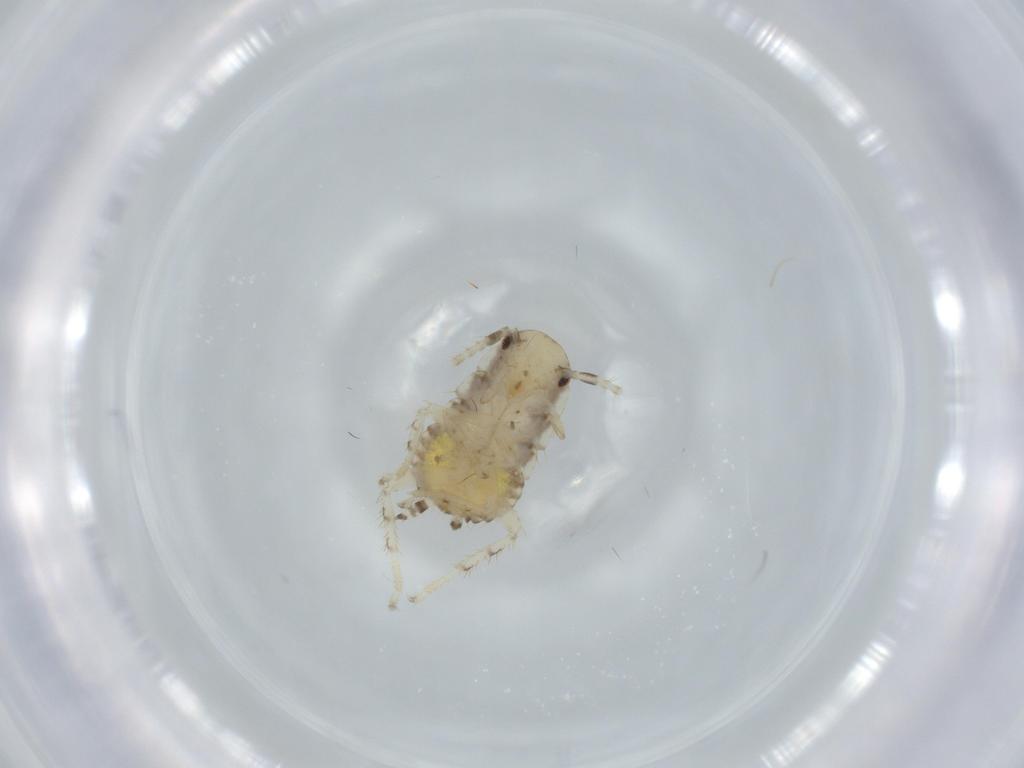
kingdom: Animalia
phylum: Arthropoda
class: Insecta
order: Blattodea
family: Ectobiidae
